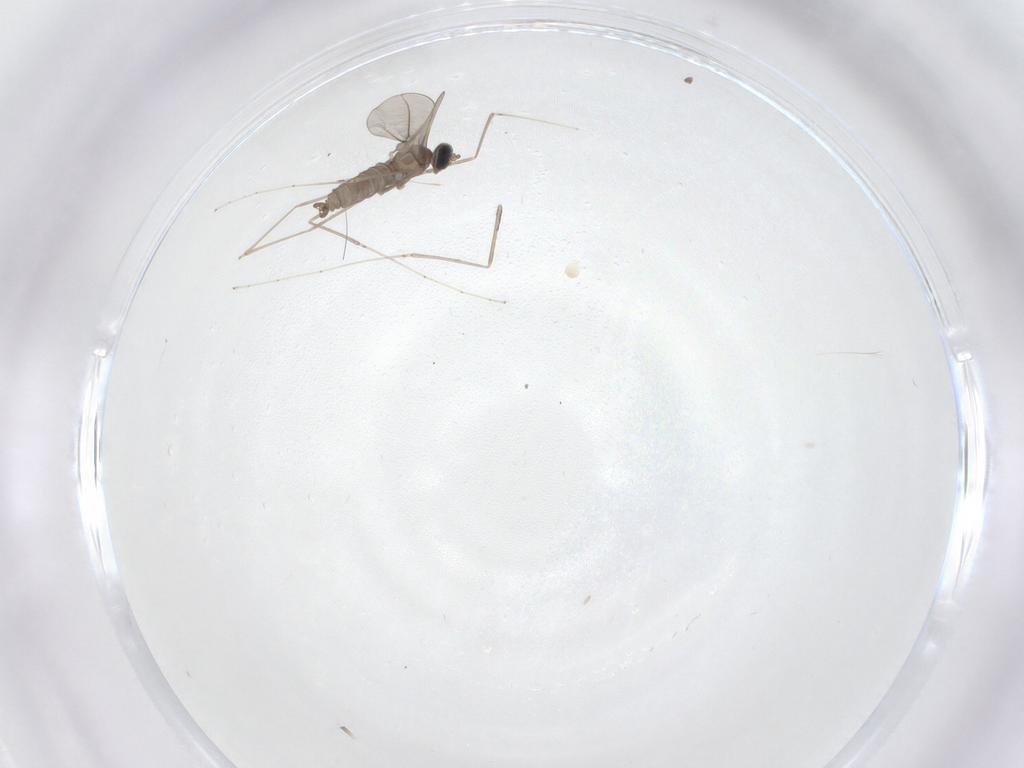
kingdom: Animalia
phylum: Arthropoda
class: Insecta
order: Diptera
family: Cecidomyiidae
